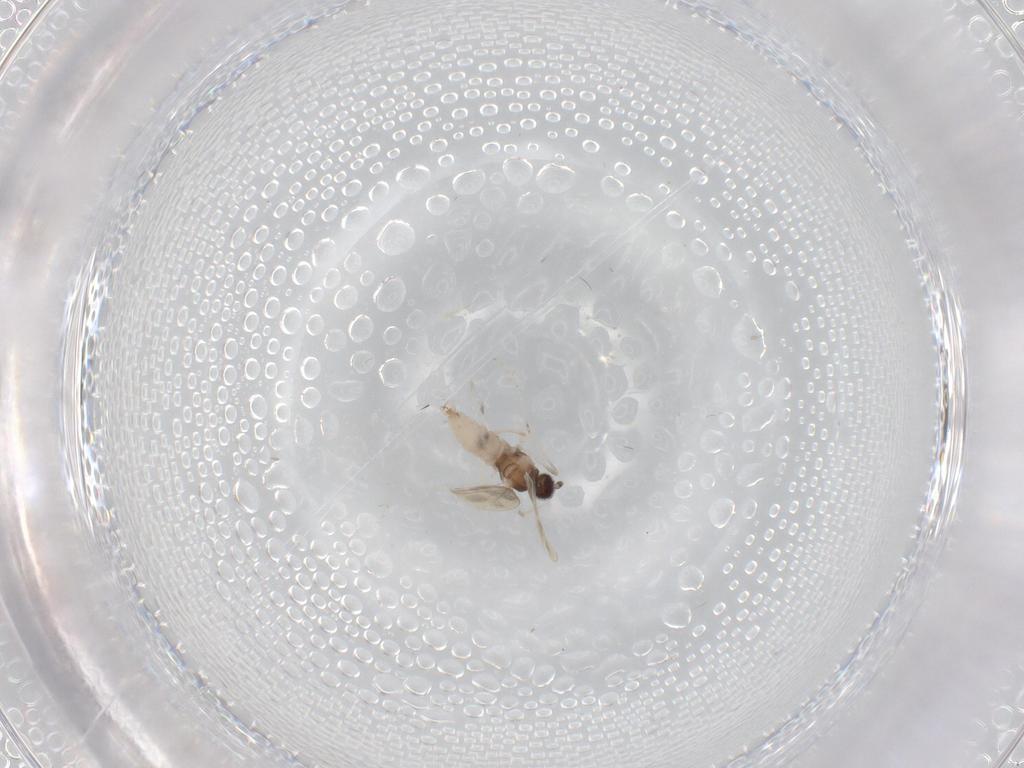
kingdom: Animalia
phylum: Arthropoda
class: Insecta
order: Diptera
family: Cecidomyiidae
